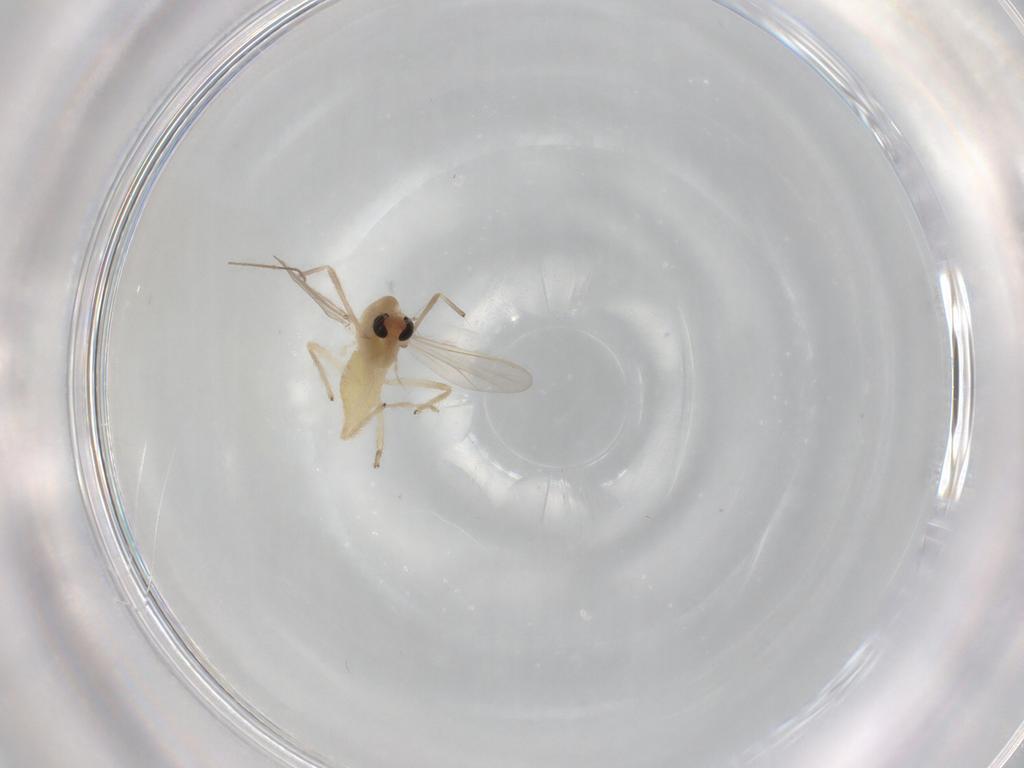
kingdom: Animalia
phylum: Arthropoda
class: Insecta
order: Diptera
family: Chironomidae
